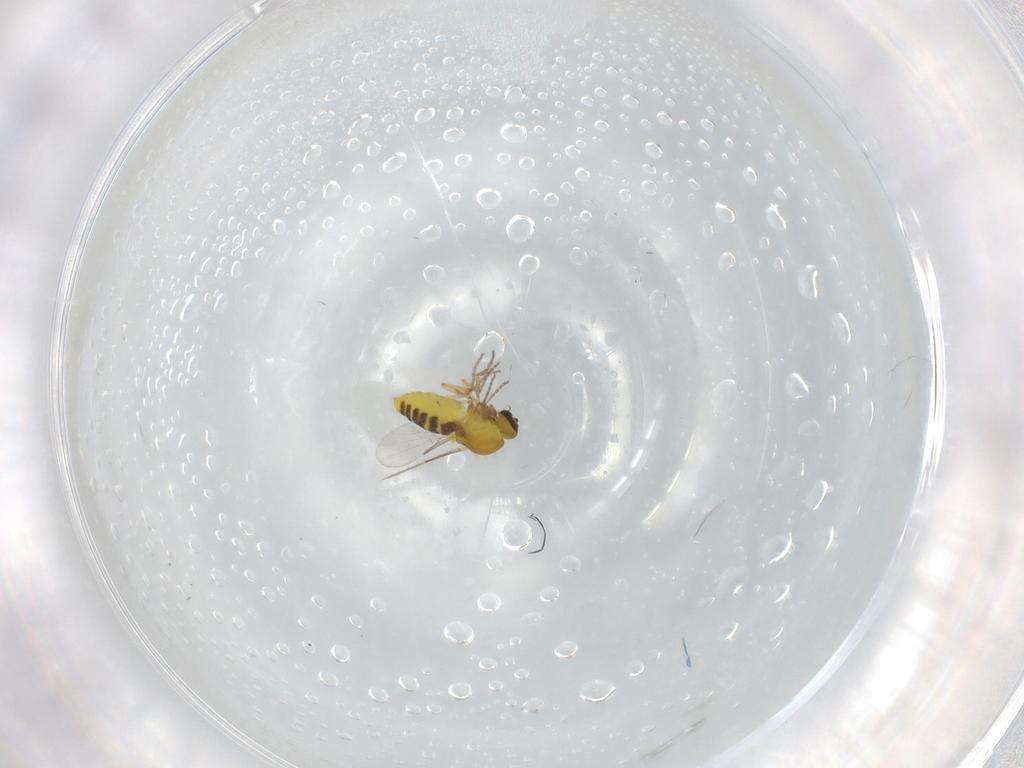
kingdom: Animalia
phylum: Arthropoda
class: Insecta
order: Diptera
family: Ceratopogonidae
